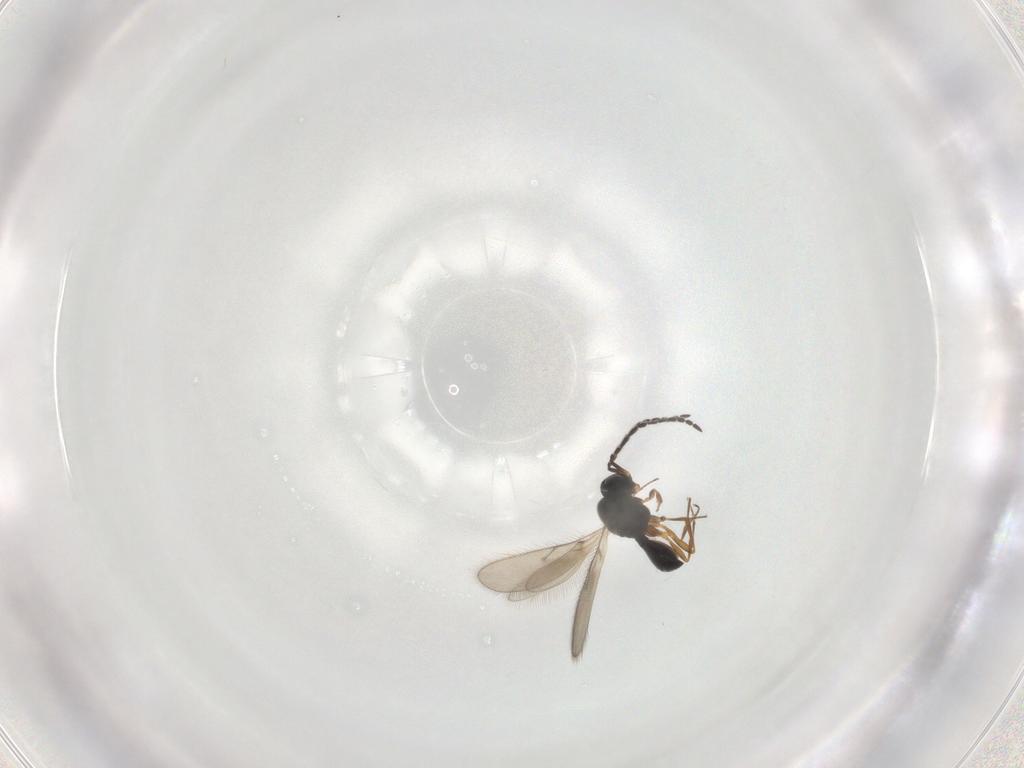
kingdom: Animalia
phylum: Arthropoda
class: Insecta
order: Hymenoptera
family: Scelionidae
